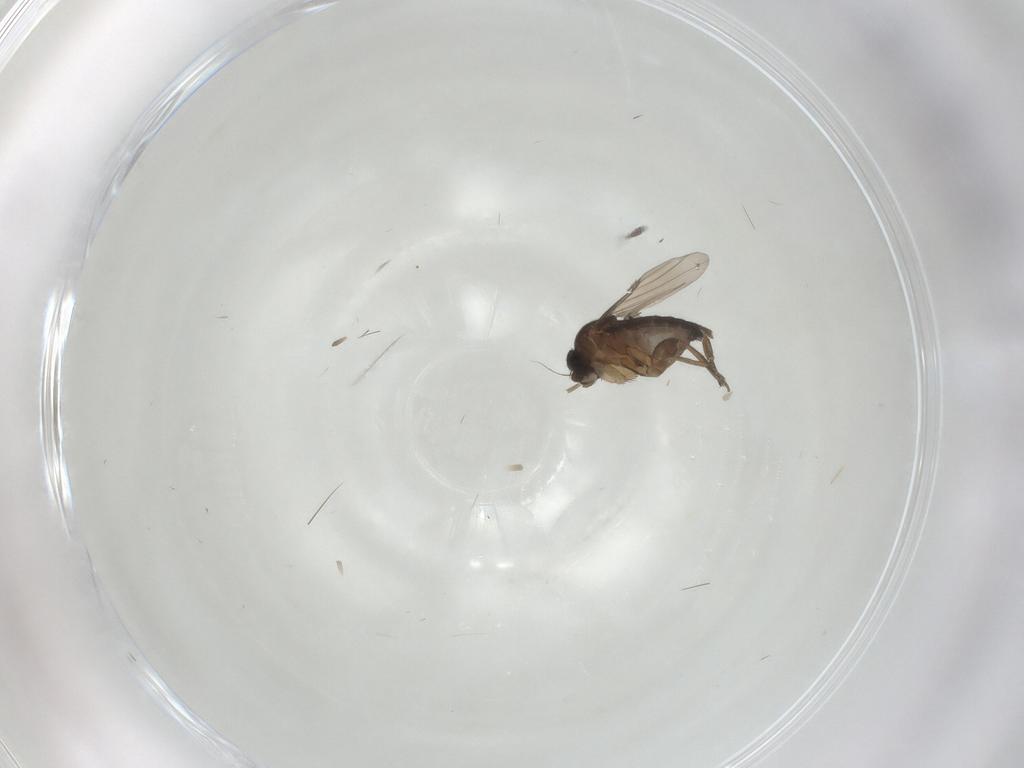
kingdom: Animalia
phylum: Arthropoda
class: Insecta
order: Diptera
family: Phoridae
